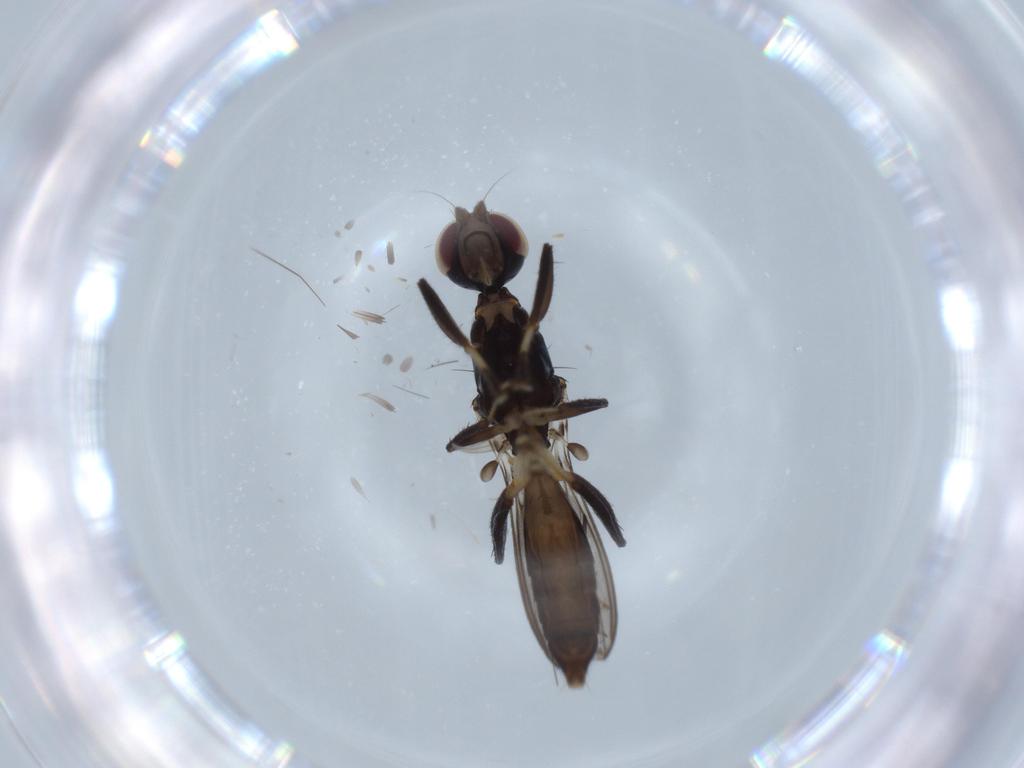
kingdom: Animalia
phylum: Arthropoda
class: Insecta
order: Diptera
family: Cypselosomatidae
